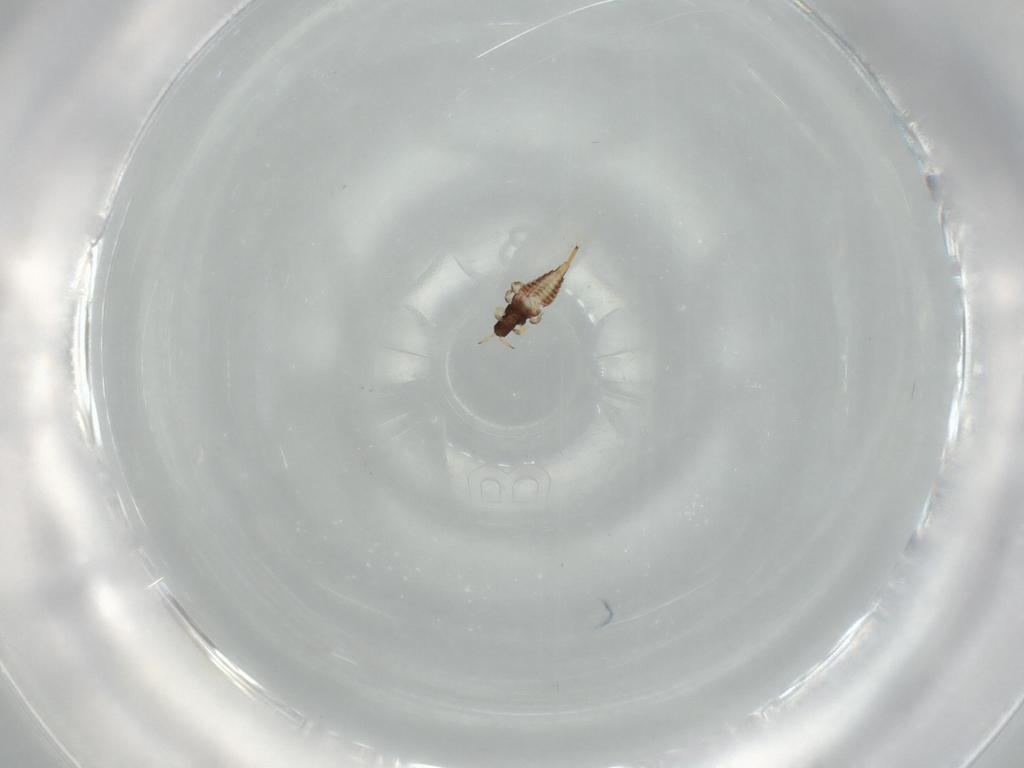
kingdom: Animalia
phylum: Arthropoda
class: Insecta
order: Thysanoptera
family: Phlaeothripidae
